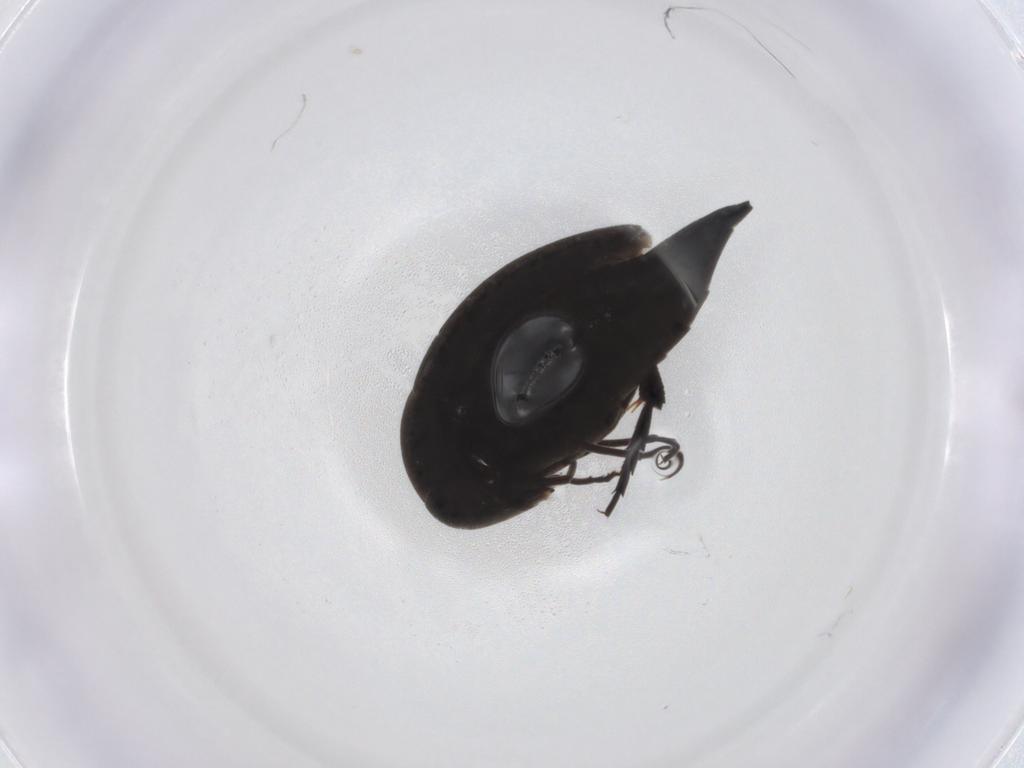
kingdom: Animalia
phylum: Arthropoda
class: Insecta
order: Coleoptera
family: Mordellidae
